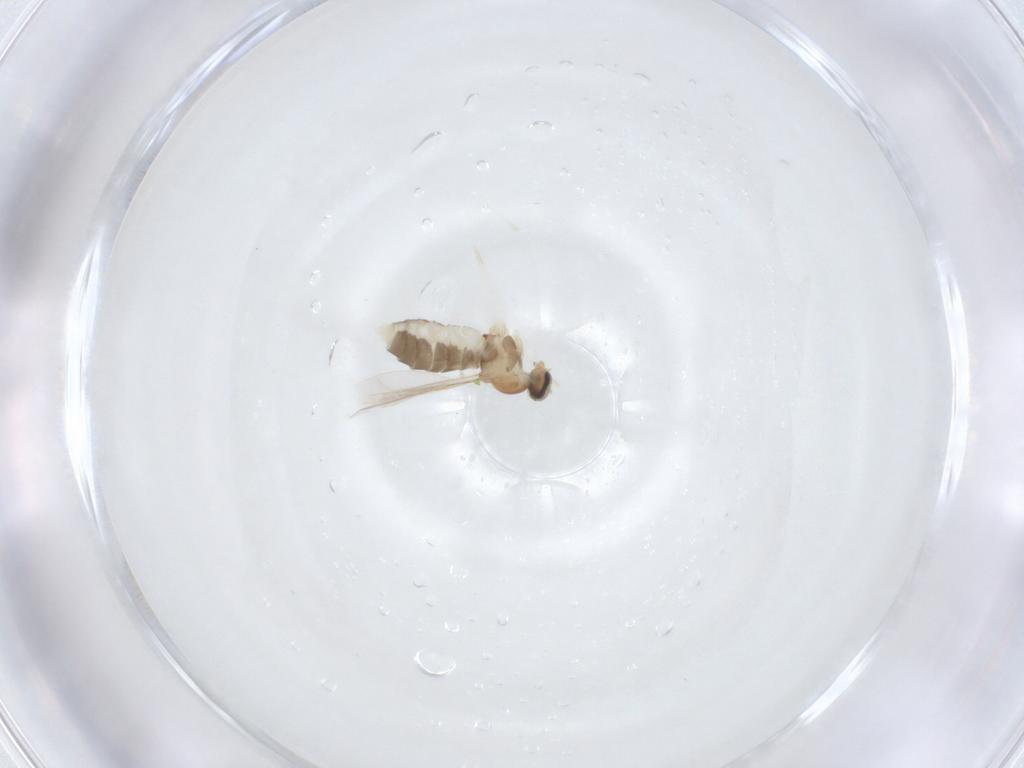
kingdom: Animalia
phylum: Arthropoda
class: Insecta
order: Diptera
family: Cecidomyiidae
